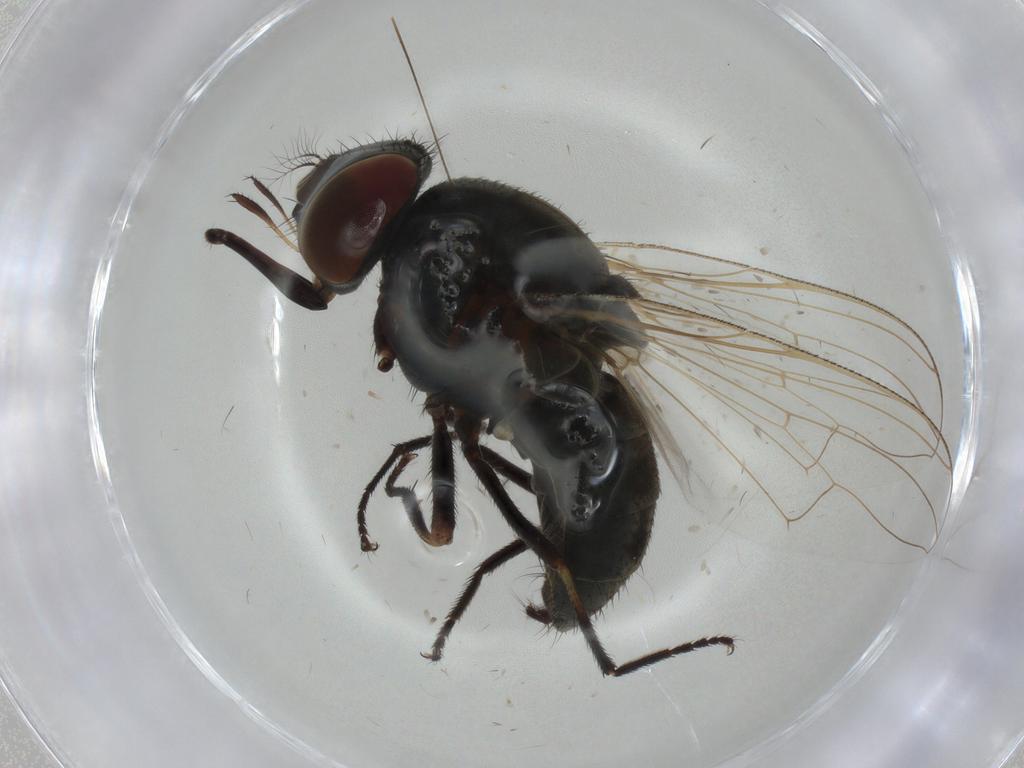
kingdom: Animalia
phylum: Arthropoda
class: Insecta
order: Diptera
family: Muscidae
